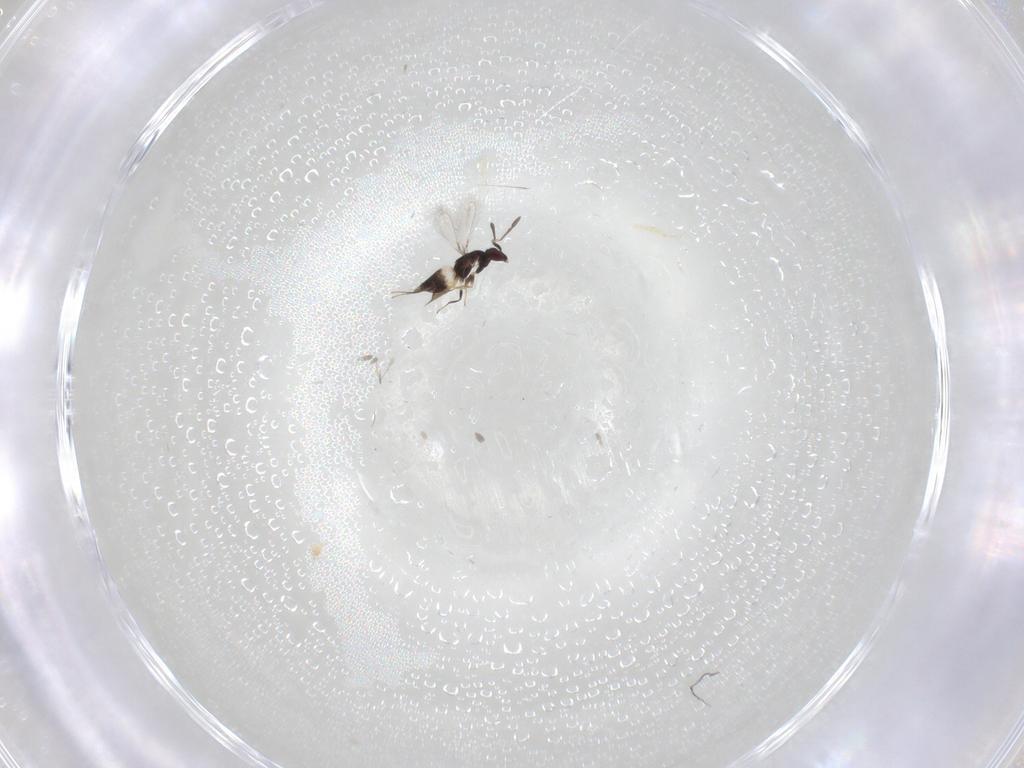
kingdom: Animalia
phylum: Arthropoda
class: Insecta
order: Hymenoptera
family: Mymaridae
